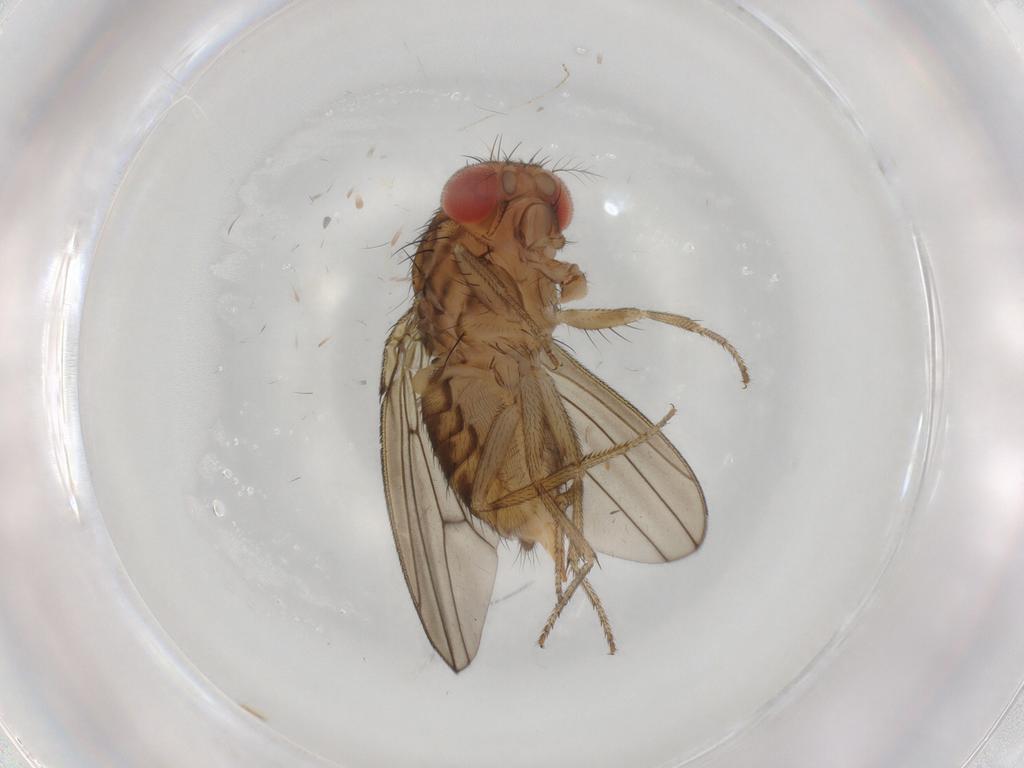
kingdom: Animalia
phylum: Arthropoda
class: Insecta
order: Diptera
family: Drosophilidae
